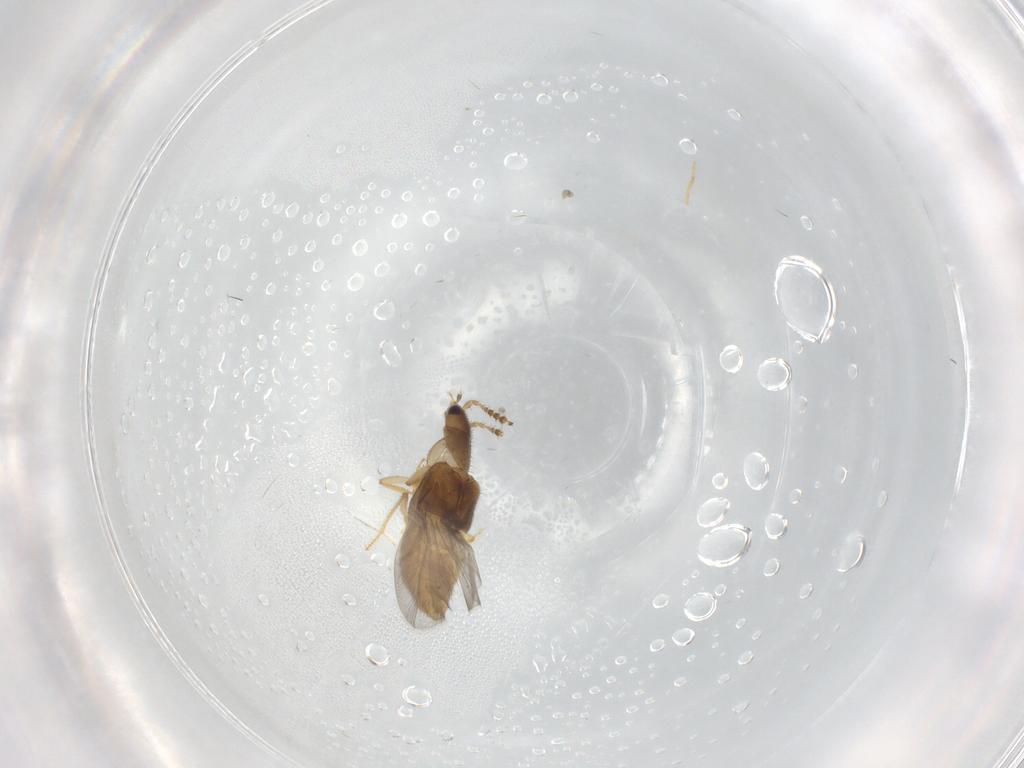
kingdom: Animalia
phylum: Arthropoda
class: Insecta
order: Coleoptera
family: Staphylinidae
